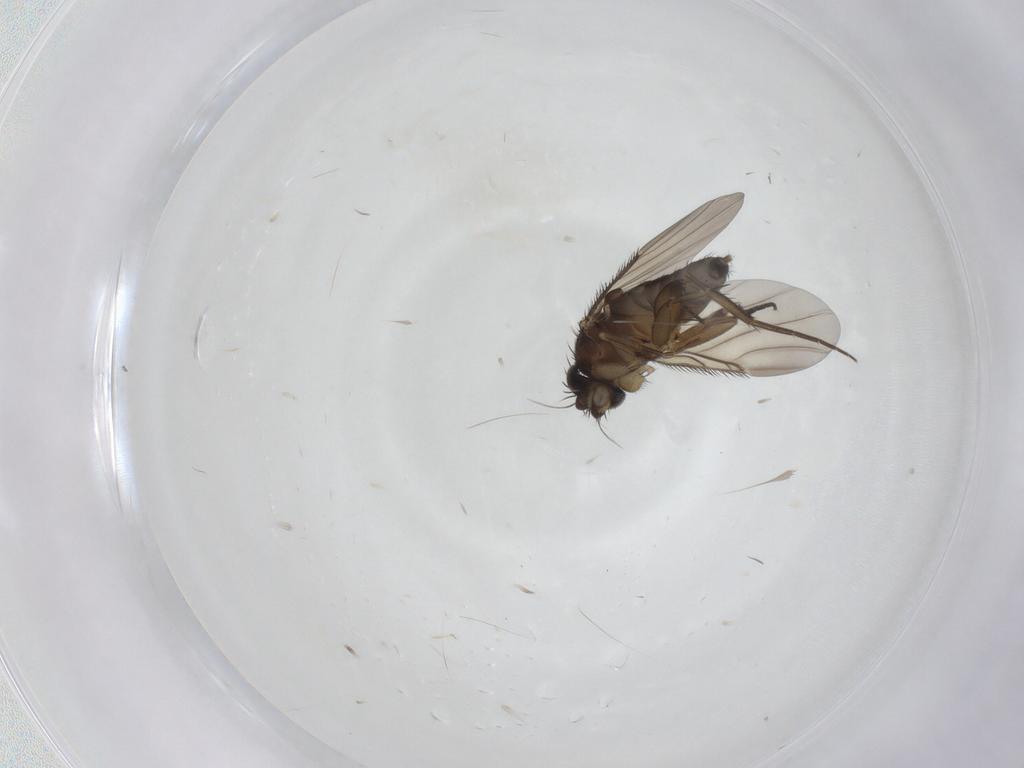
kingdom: Animalia
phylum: Arthropoda
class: Insecta
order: Diptera
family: Phoridae
